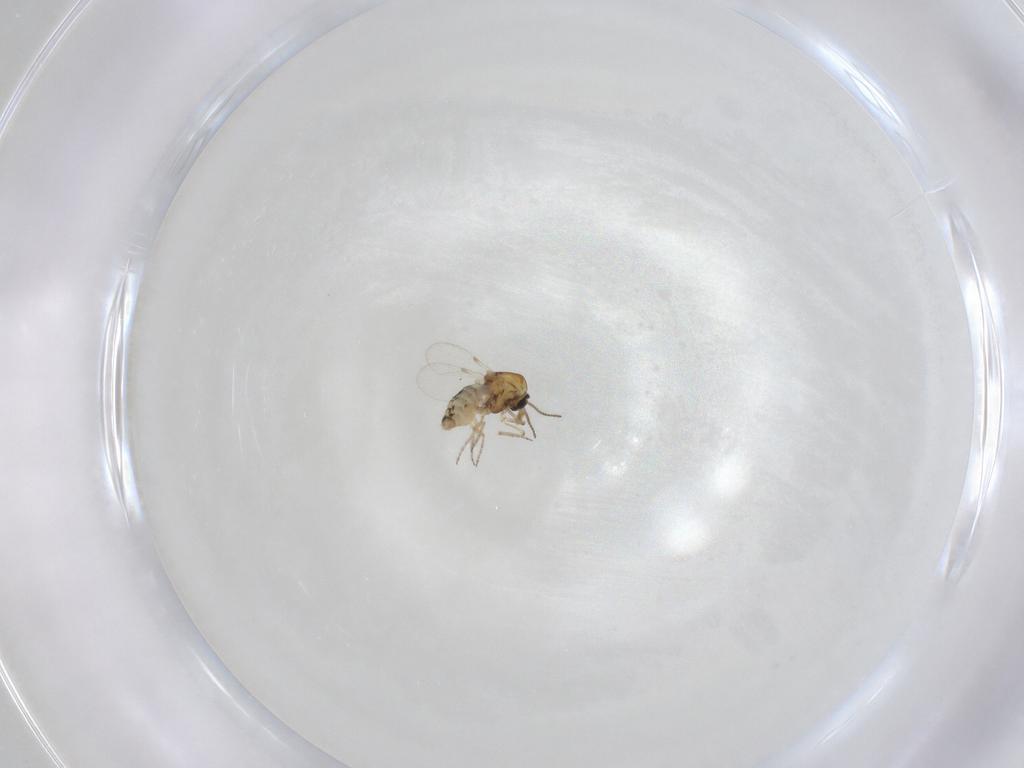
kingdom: Animalia
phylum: Arthropoda
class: Insecta
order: Diptera
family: Ceratopogonidae
